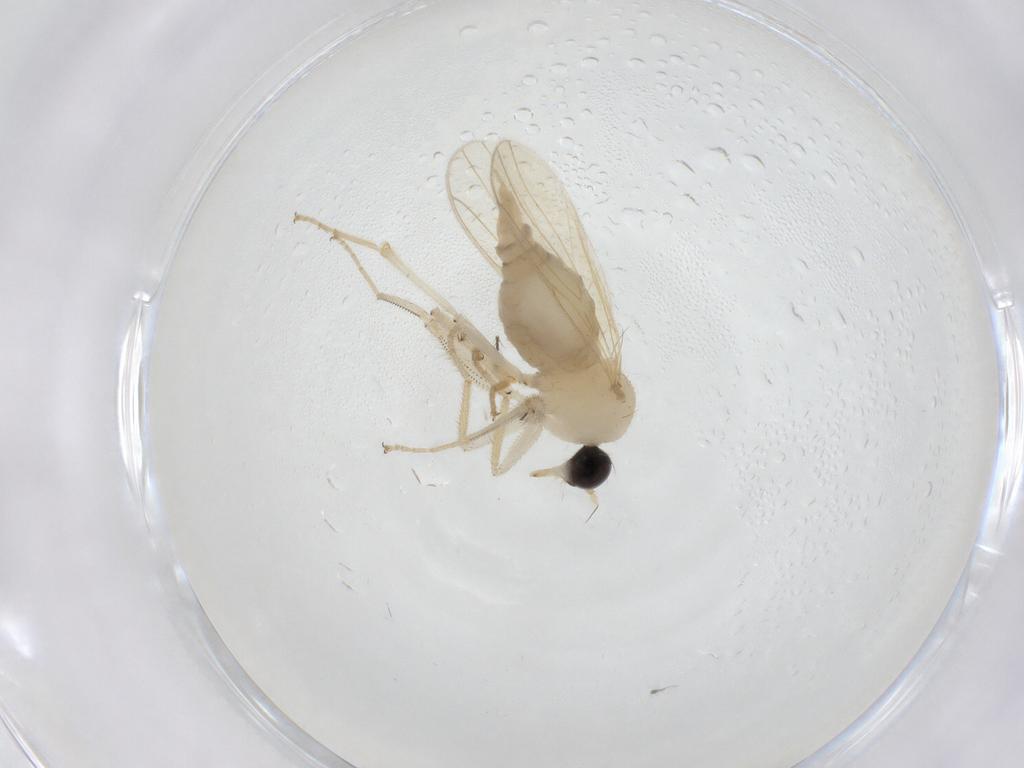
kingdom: Animalia
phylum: Arthropoda
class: Insecta
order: Diptera
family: Hybotidae
